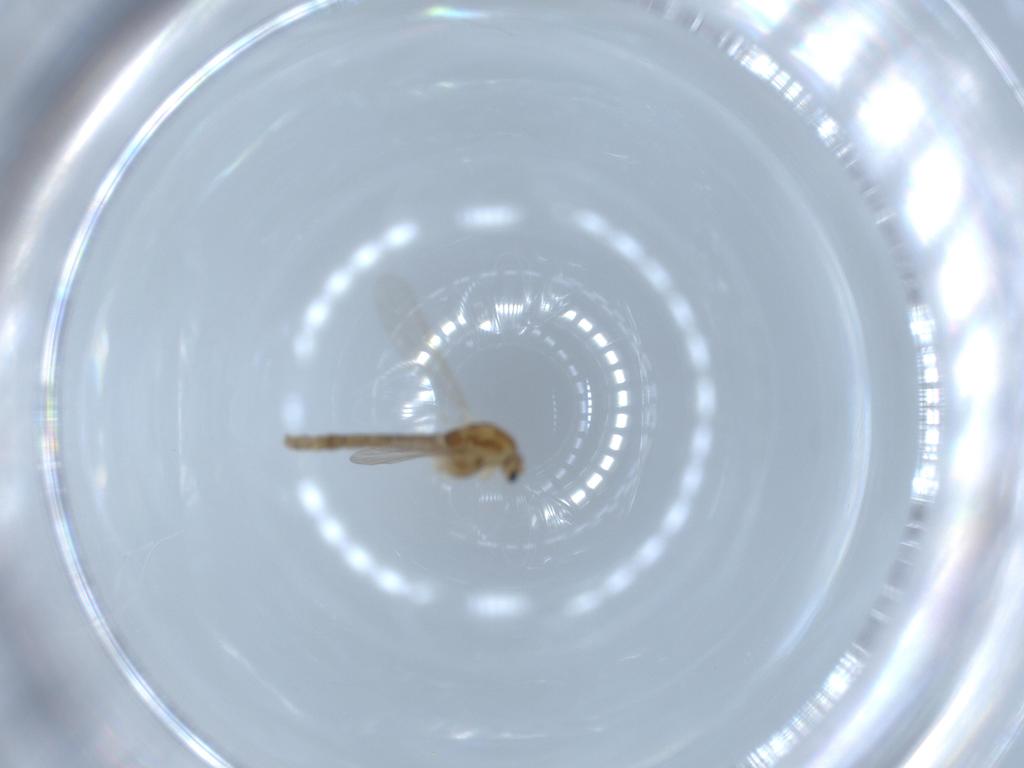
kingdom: Animalia
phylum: Arthropoda
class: Insecta
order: Diptera
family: Chironomidae
